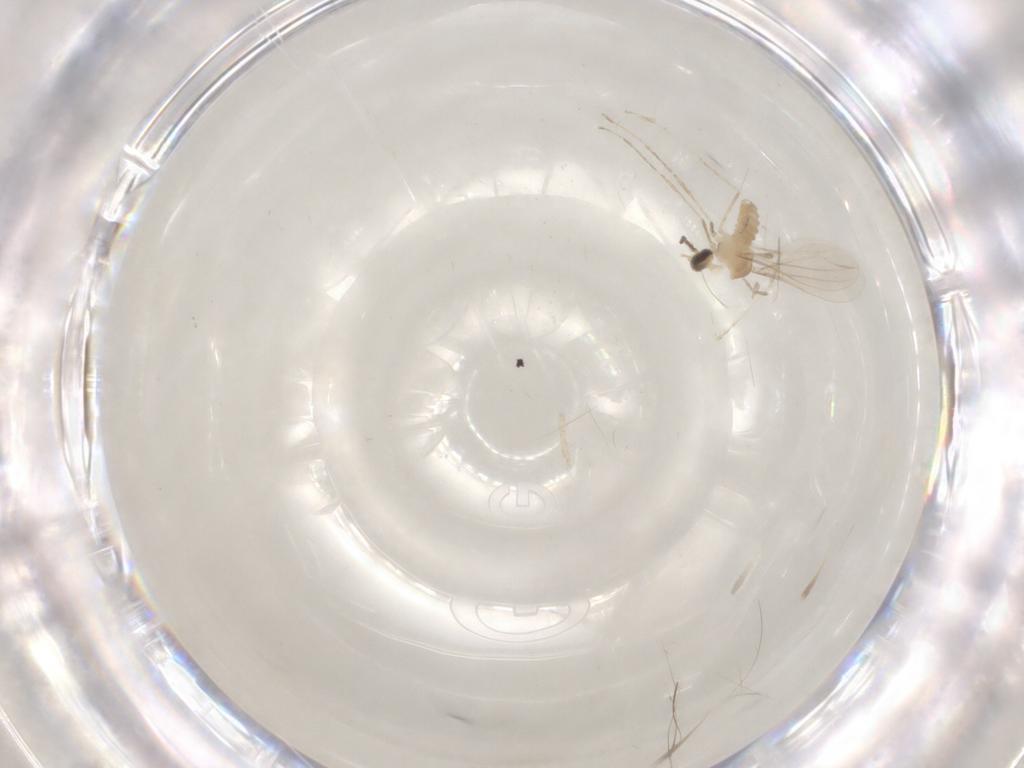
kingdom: Animalia
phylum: Arthropoda
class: Insecta
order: Diptera
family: Cecidomyiidae
